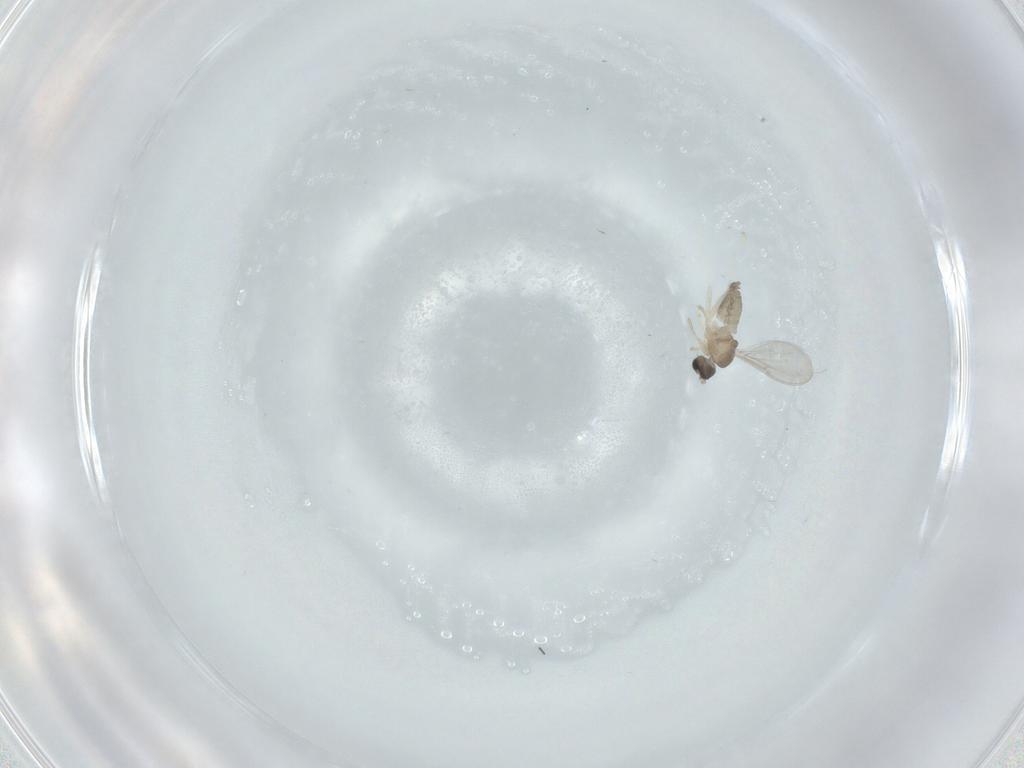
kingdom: Animalia
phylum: Arthropoda
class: Insecta
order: Diptera
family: Cecidomyiidae
